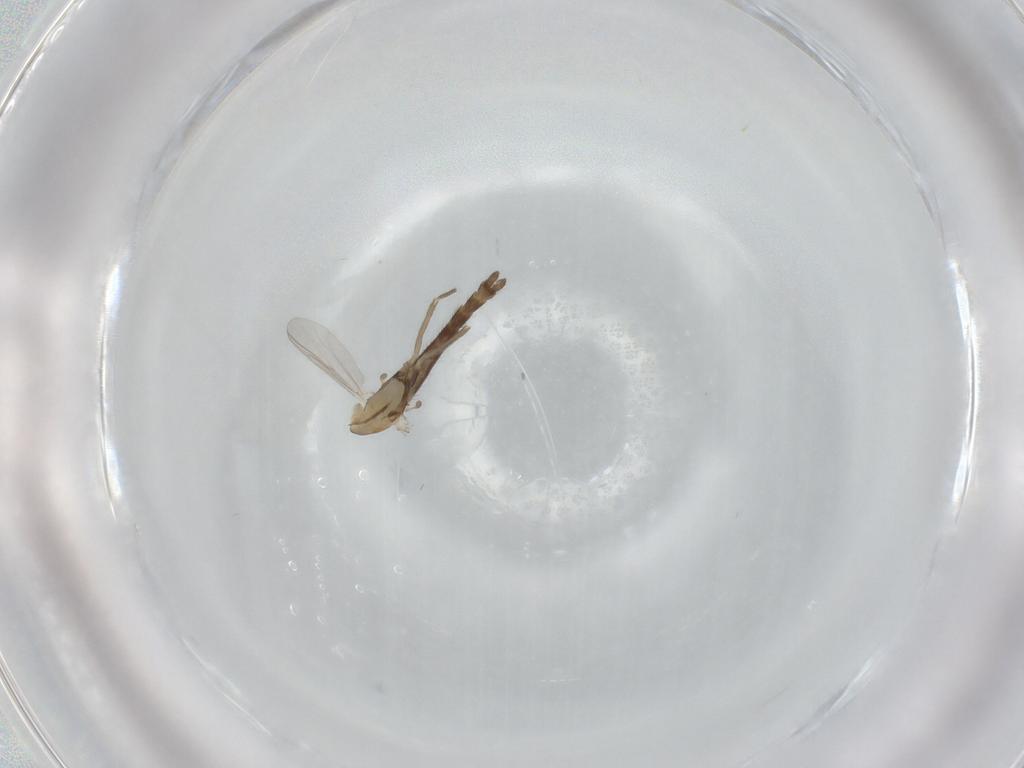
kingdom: Animalia
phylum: Arthropoda
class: Insecta
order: Diptera
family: Chironomidae
